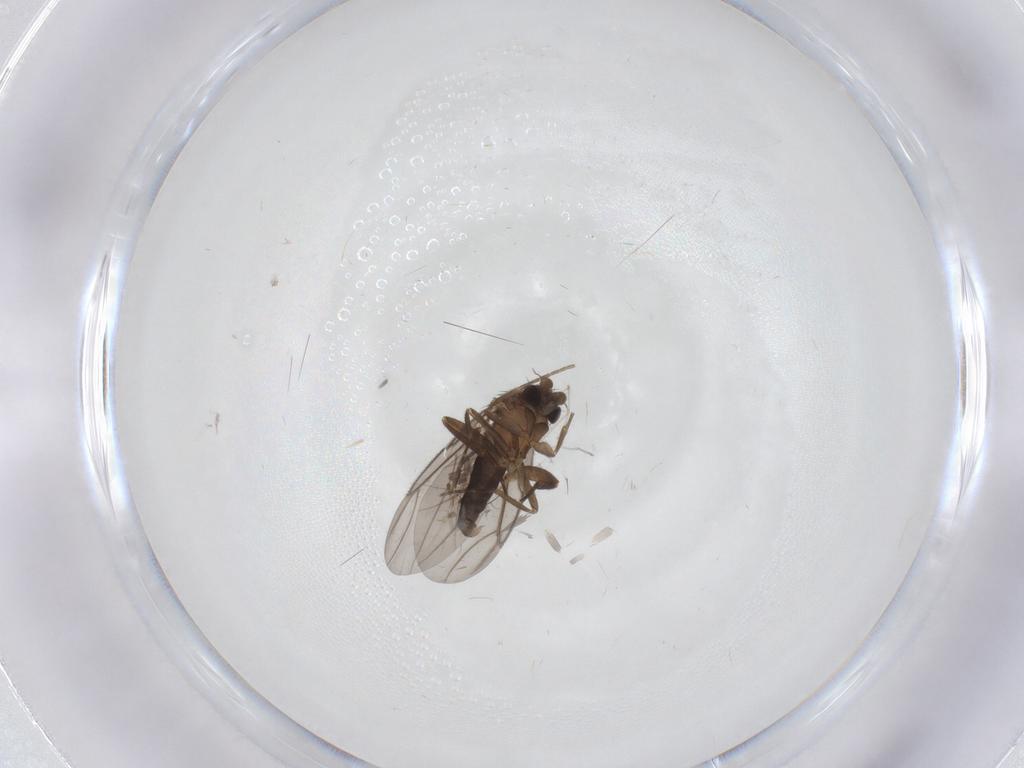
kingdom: Animalia
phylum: Arthropoda
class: Insecta
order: Diptera
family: Chironomidae
